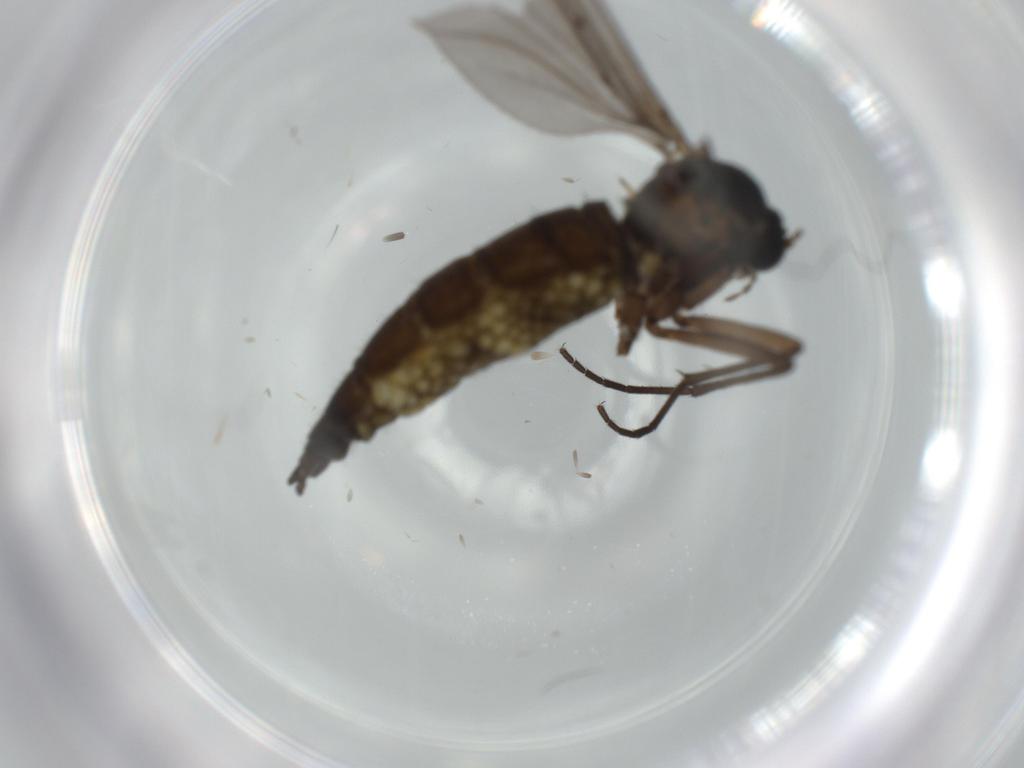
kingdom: Animalia
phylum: Arthropoda
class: Insecta
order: Diptera
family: Sciaridae
